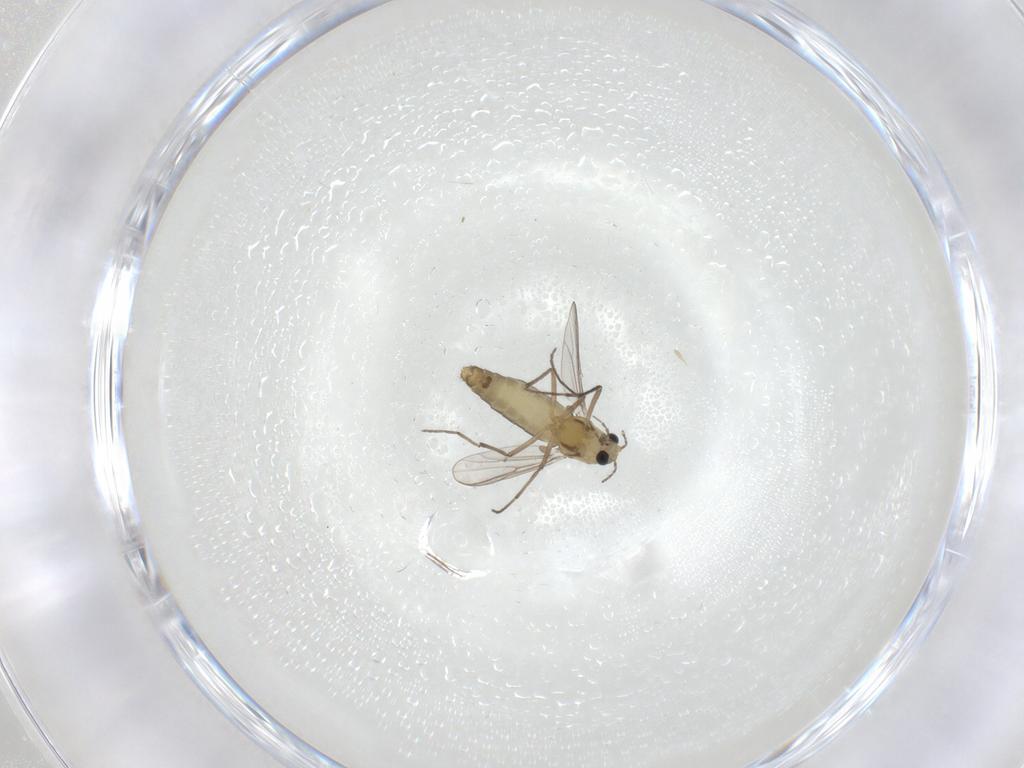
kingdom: Animalia
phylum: Arthropoda
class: Insecta
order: Diptera
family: Chironomidae
